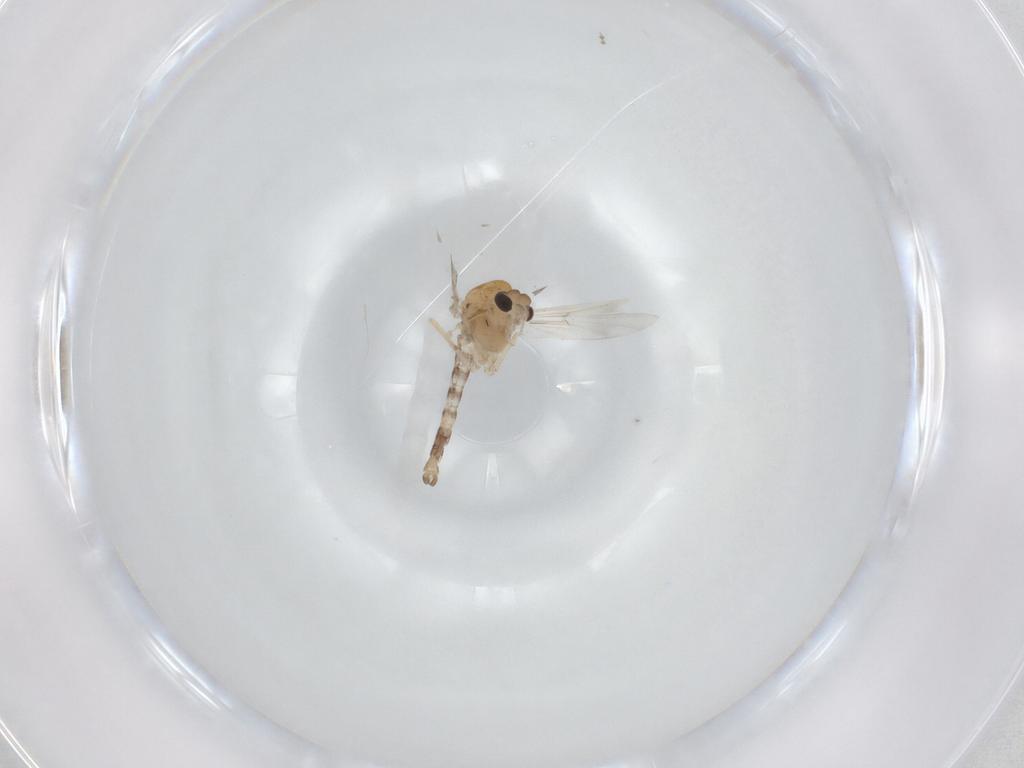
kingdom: Animalia
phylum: Arthropoda
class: Insecta
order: Diptera
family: Chironomidae
